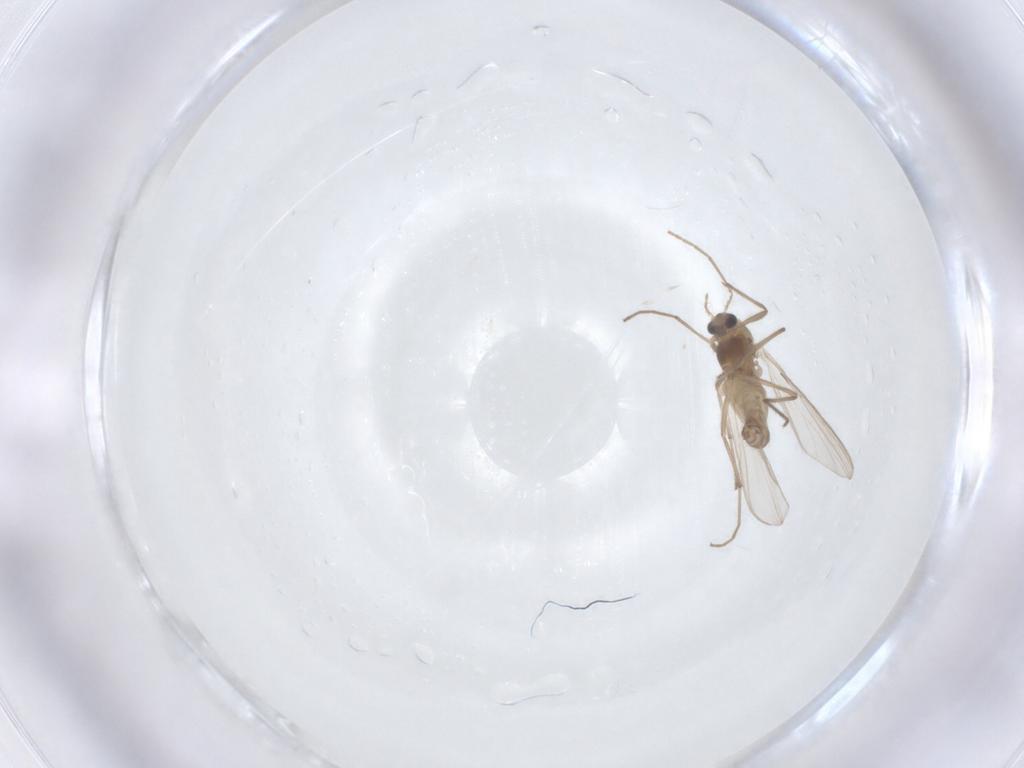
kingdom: Animalia
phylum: Arthropoda
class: Insecta
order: Diptera
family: Chironomidae
